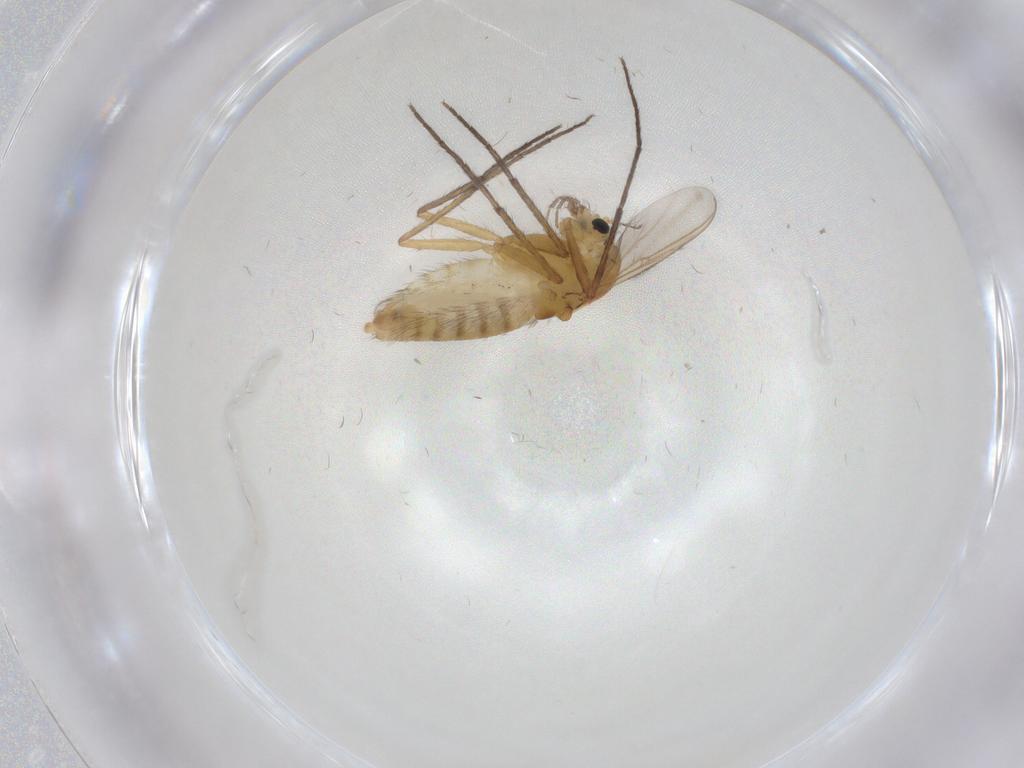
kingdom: Animalia
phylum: Arthropoda
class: Insecta
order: Diptera
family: Chironomidae
